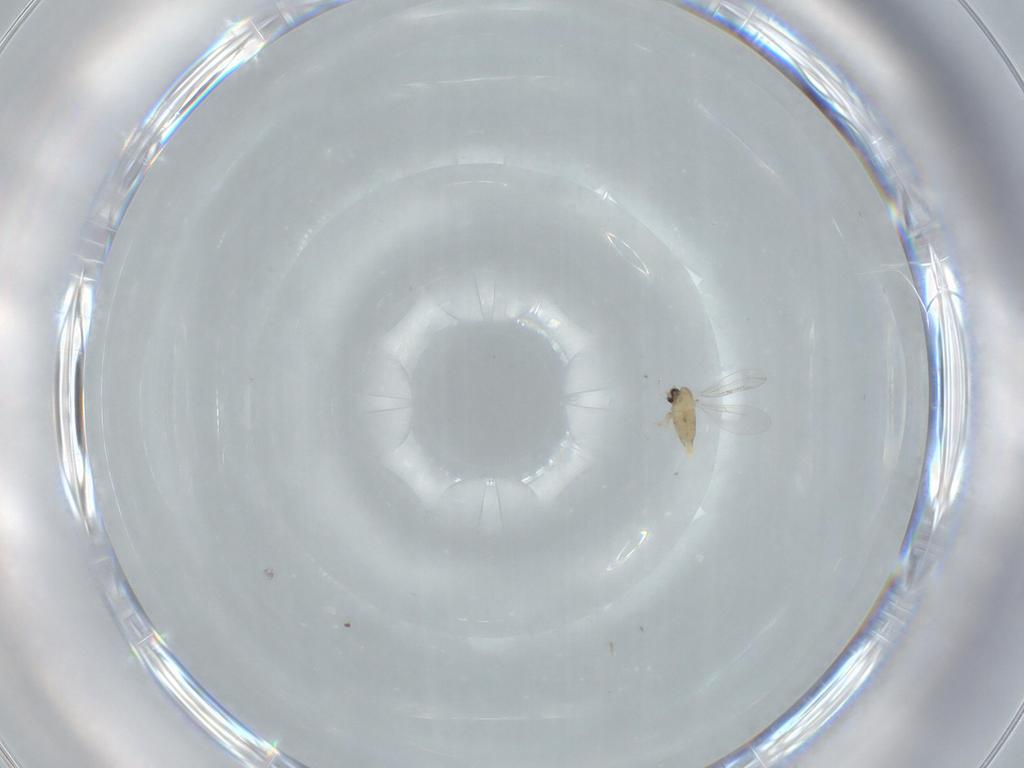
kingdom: Animalia
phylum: Arthropoda
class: Insecta
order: Diptera
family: Cecidomyiidae
